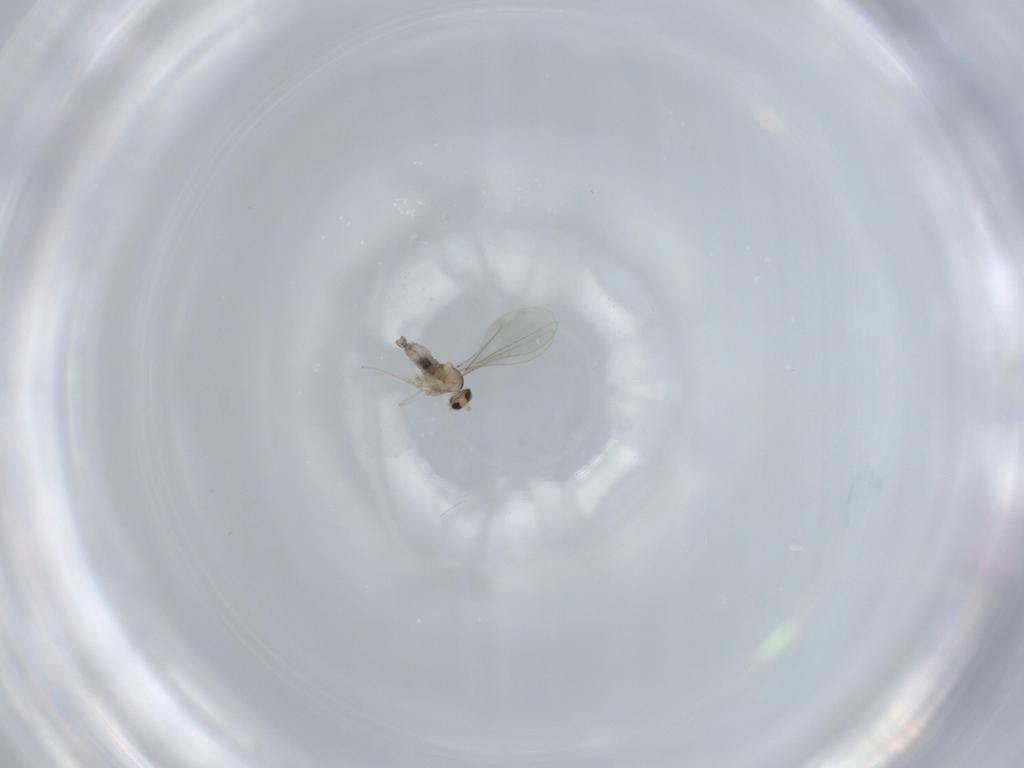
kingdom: Animalia
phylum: Arthropoda
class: Insecta
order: Diptera
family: Cecidomyiidae
